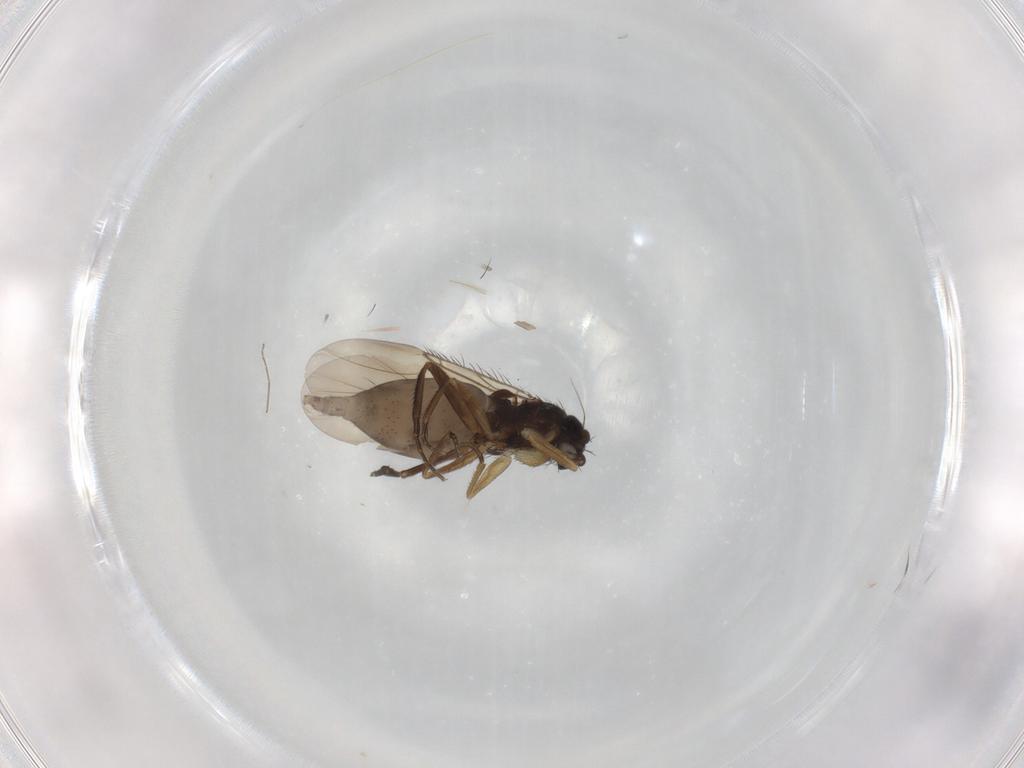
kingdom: Animalia
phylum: Arthropoda
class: Insecta
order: Diptera
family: Phoridae
